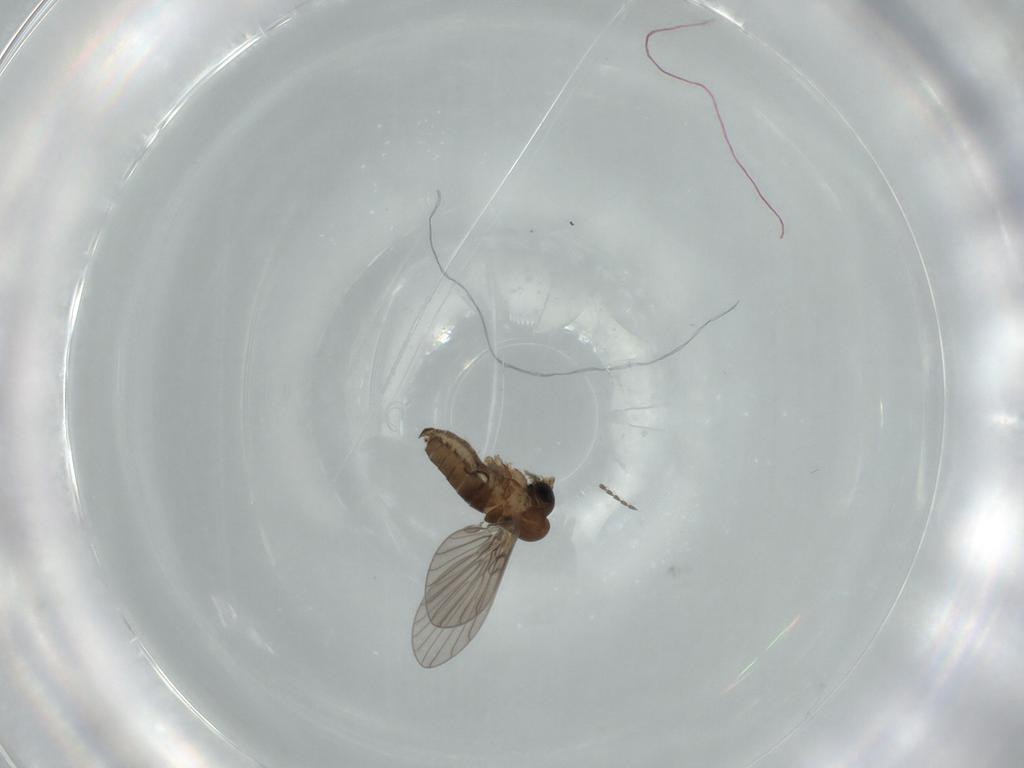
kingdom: Animalia
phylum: Arthropoda
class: Insecta
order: Diptera
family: Psychodidae
